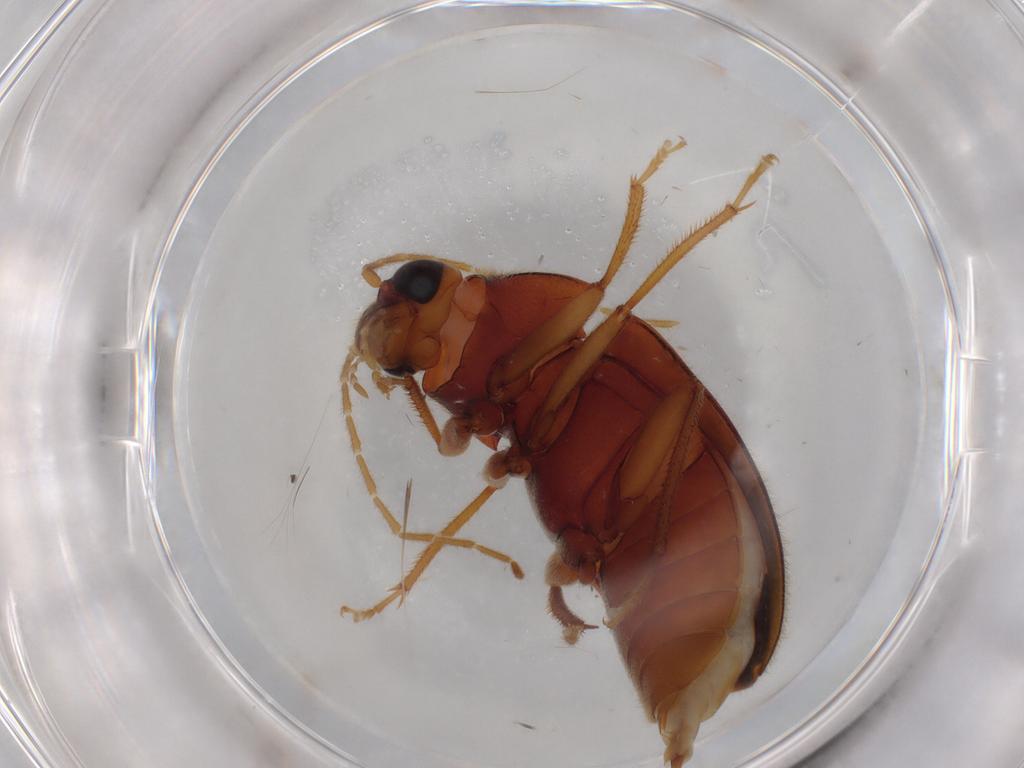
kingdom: Animalia
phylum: Arthropoda
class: Insecta
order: Coleoptera
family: Ptilodactylidae
